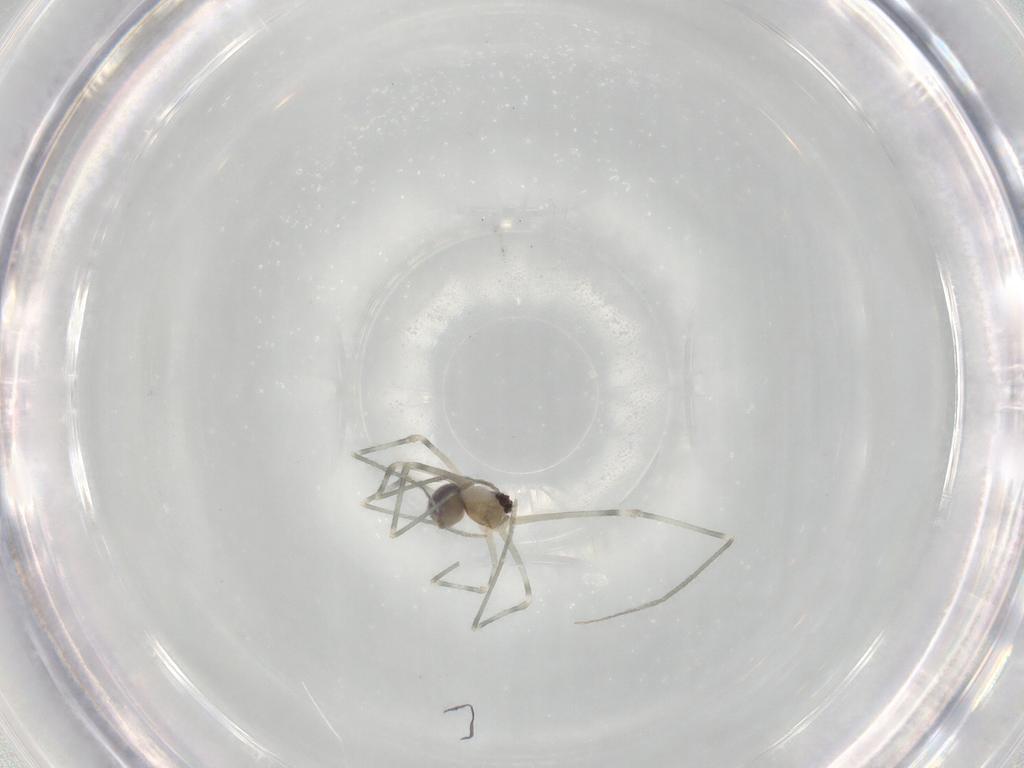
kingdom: Animalia
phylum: Arthropoda
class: Arachnida
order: Araneae
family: Pholcidae
